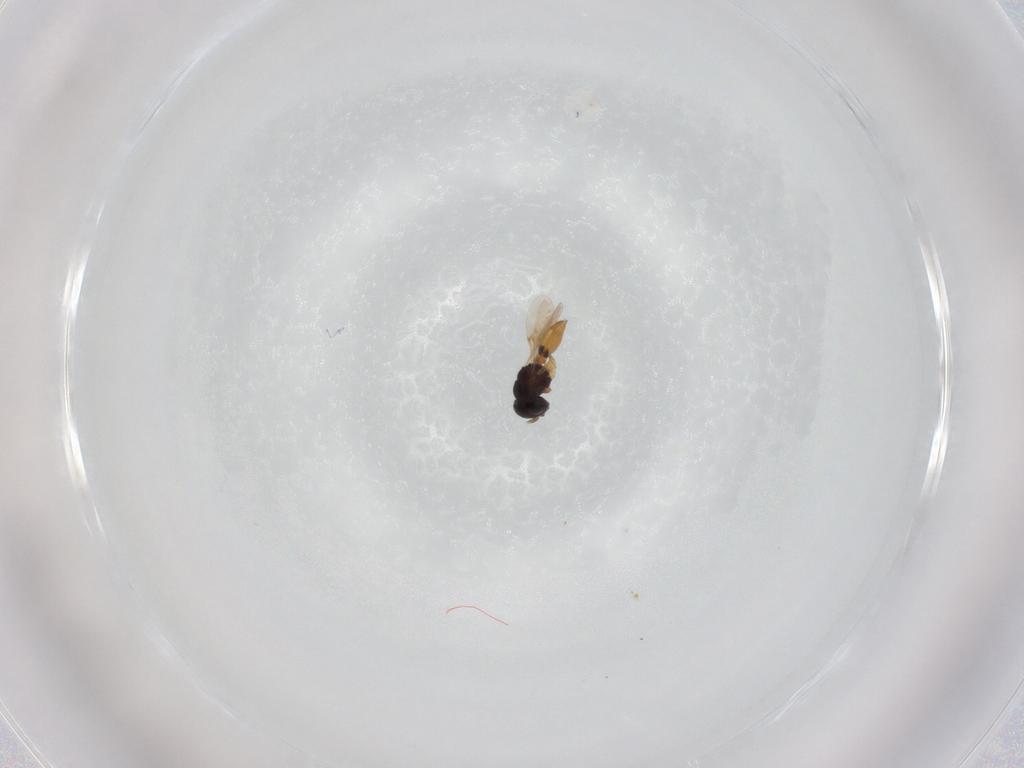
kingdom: Animalia
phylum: Arthropoda
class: Insecta
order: Hymenoptera
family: Scelionidae
